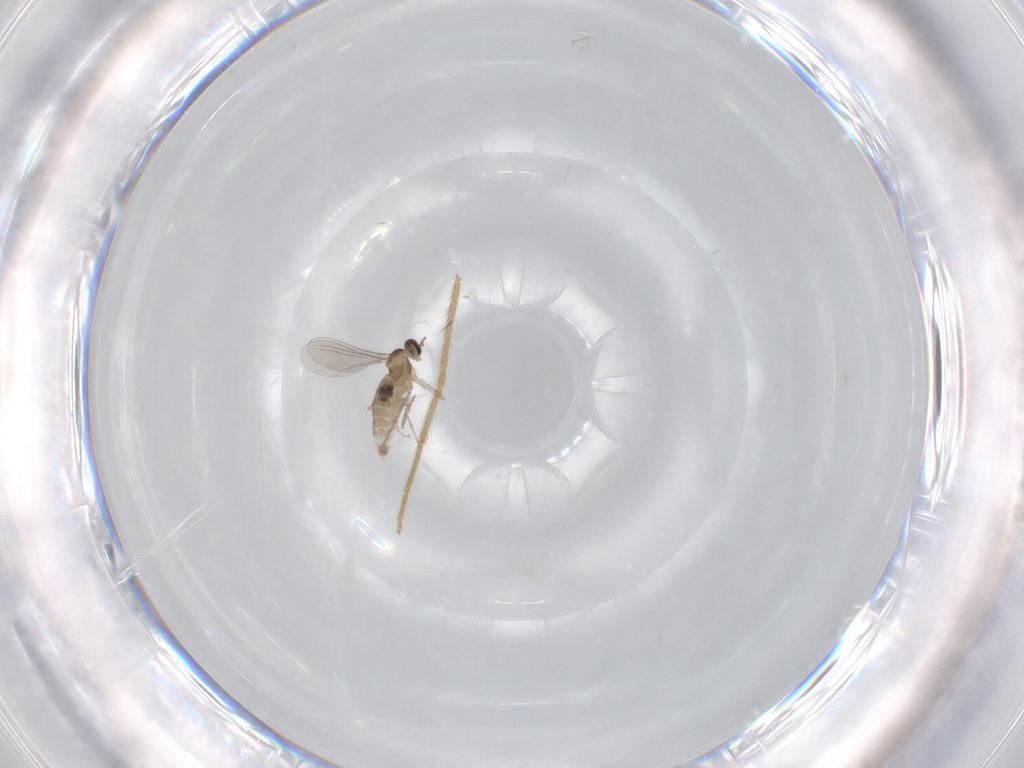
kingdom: Animalia
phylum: Arthropoda
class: Insecta
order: Diptera
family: Chironomidae
